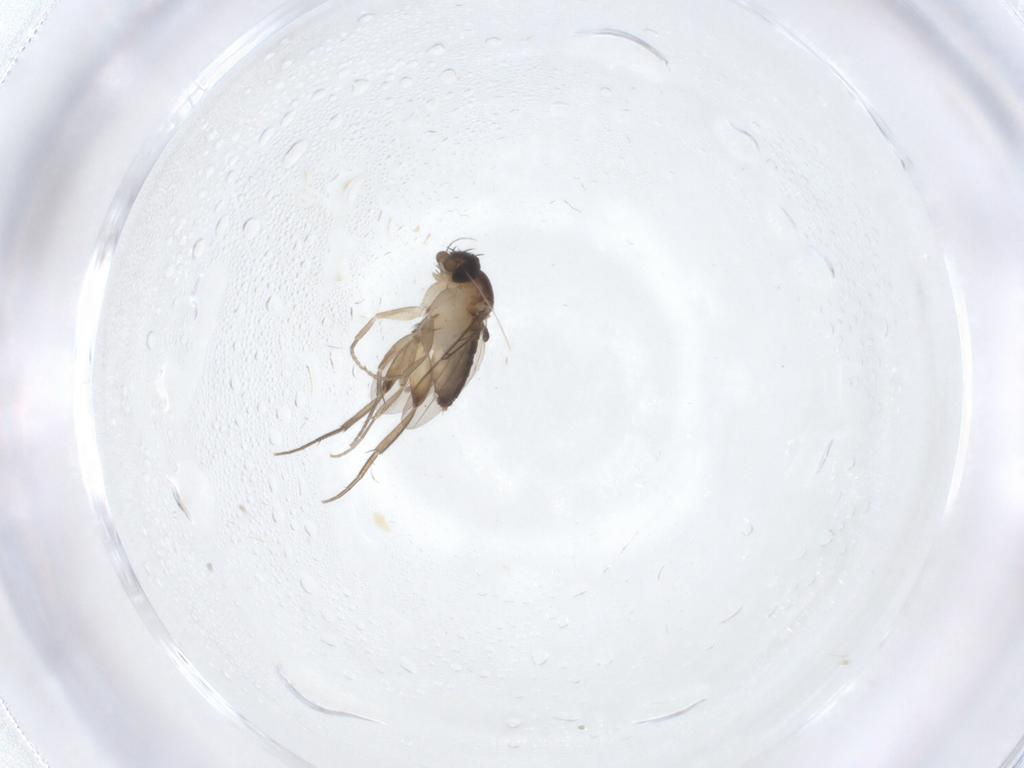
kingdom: Animalia
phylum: Arthropoda
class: Insecta
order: Diptera
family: Phoridae
